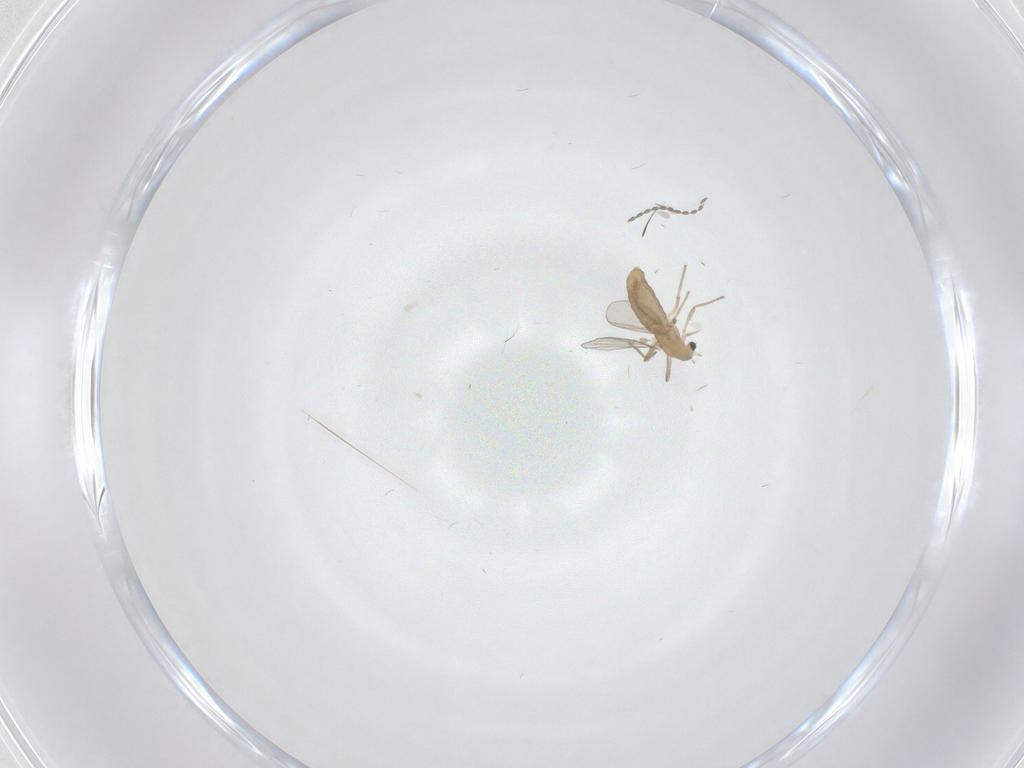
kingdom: Animalia
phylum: Arthropoda
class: Insecta
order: Diptera
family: Chironomidae
